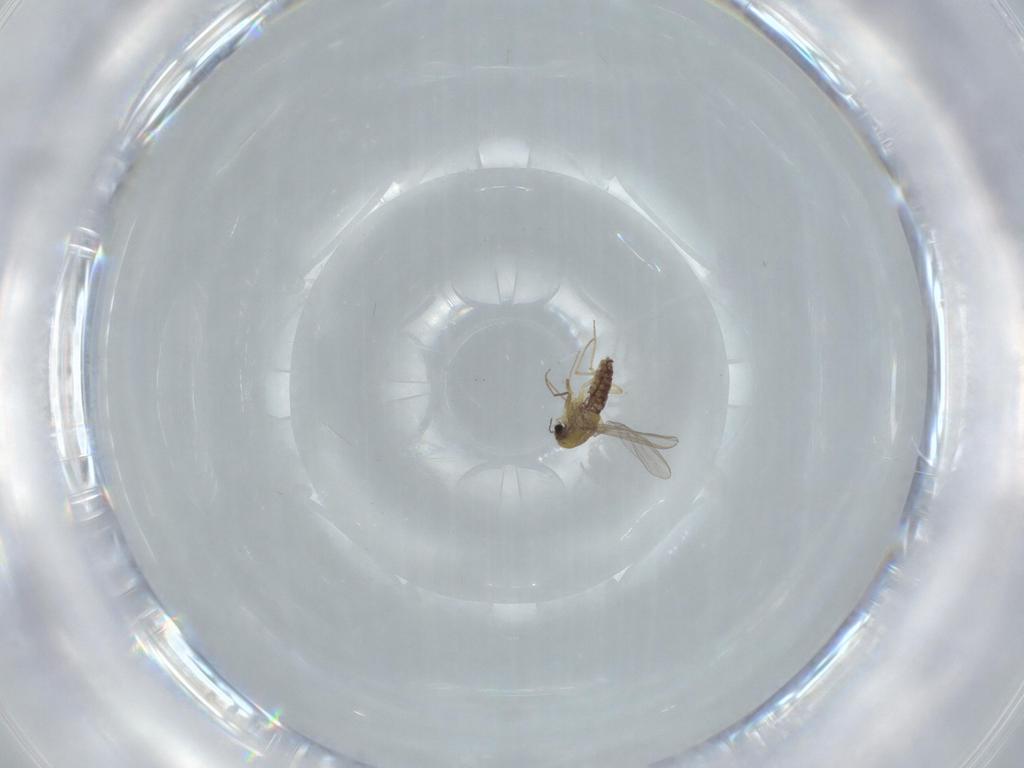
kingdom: Animalia
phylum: Arthropoda
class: Insecta
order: Diptera
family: Chironomidae
